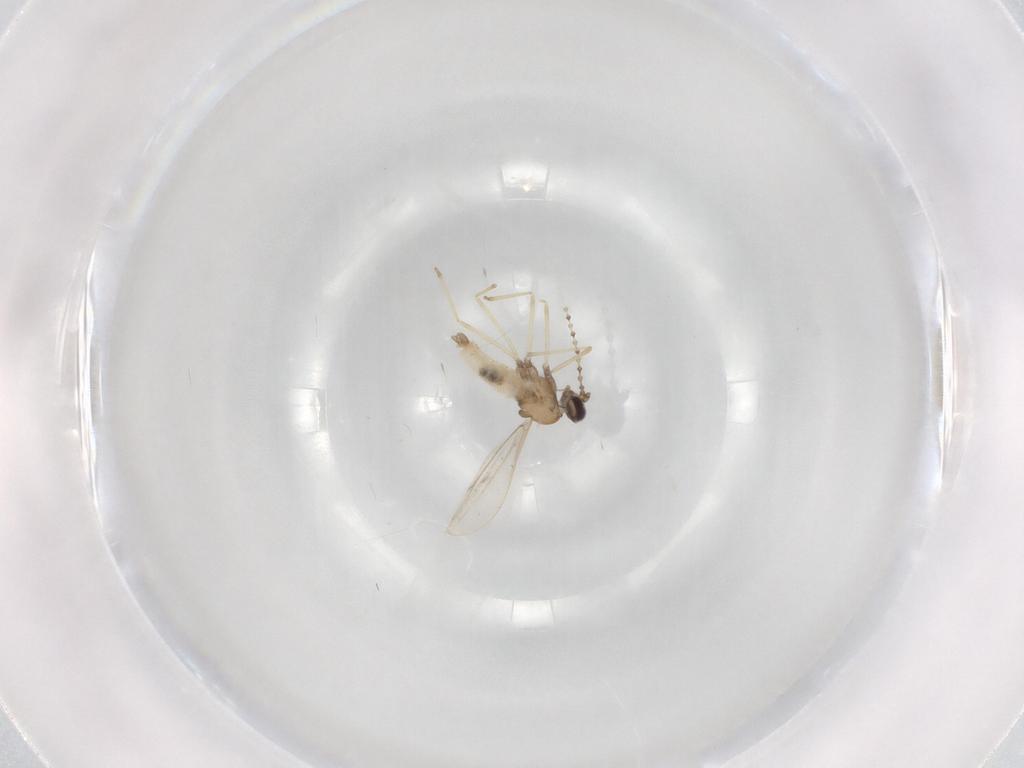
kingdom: Animalia
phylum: Arthropoda
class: Insecta
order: Diptera
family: Cecidomyiidae
